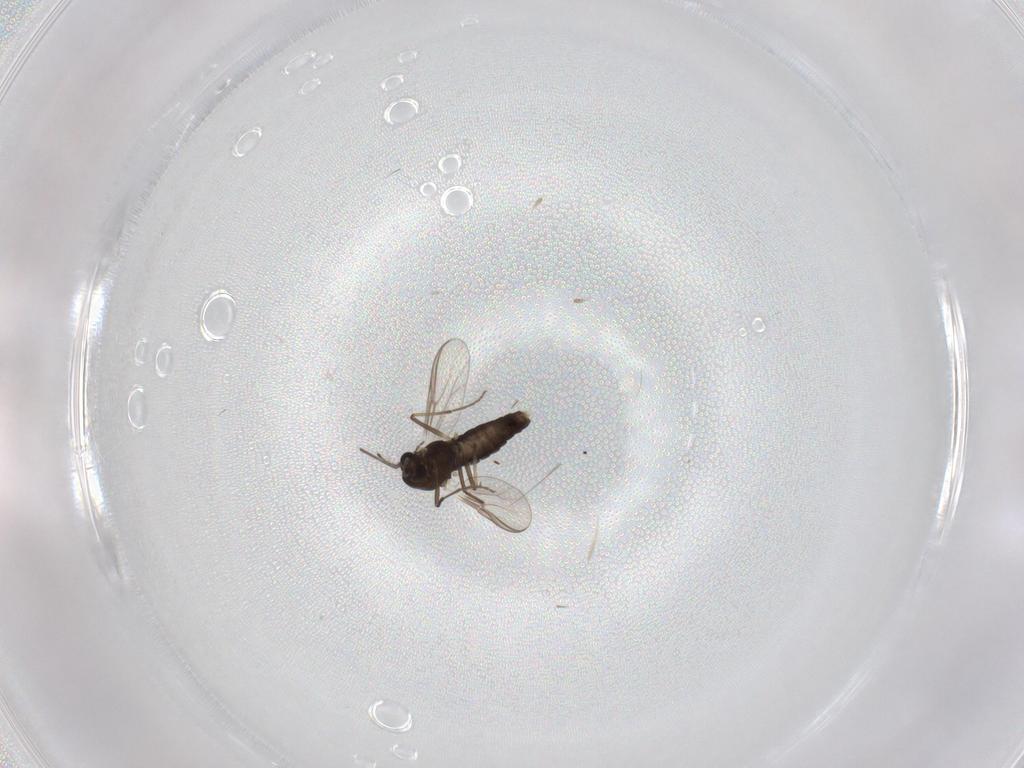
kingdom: Animalia
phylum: Arthropoda
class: Insecta
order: Diptera
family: Chironomidae
